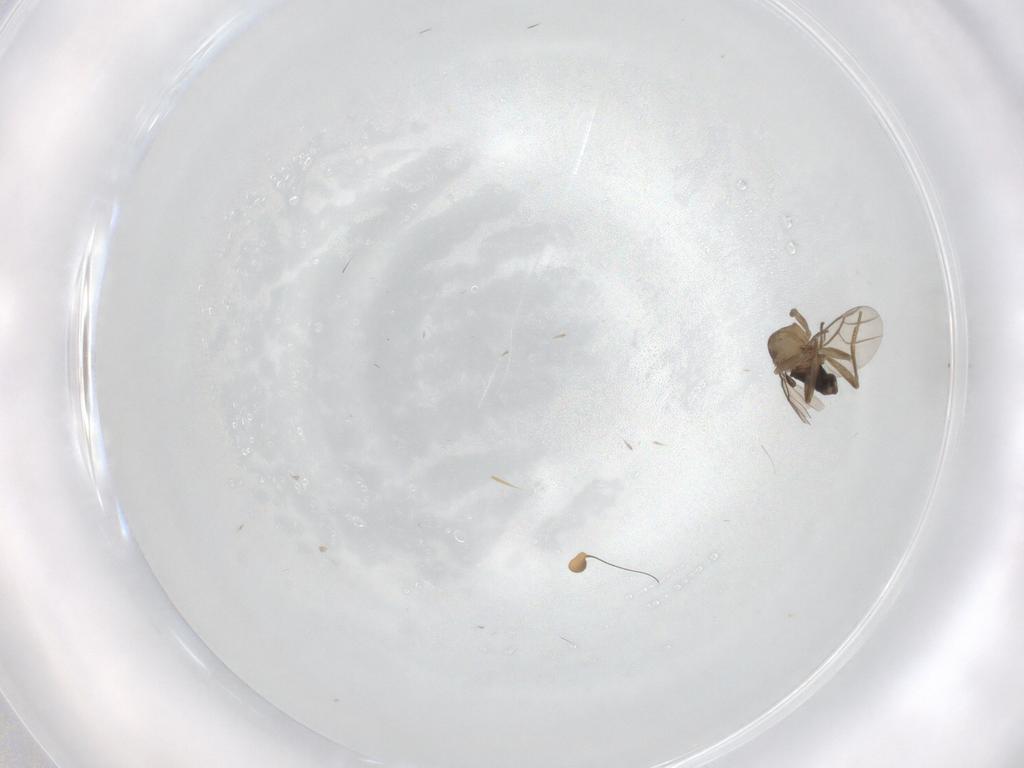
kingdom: Animalia
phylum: Arthropoda
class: Insecta
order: Diptera
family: Phoridae
